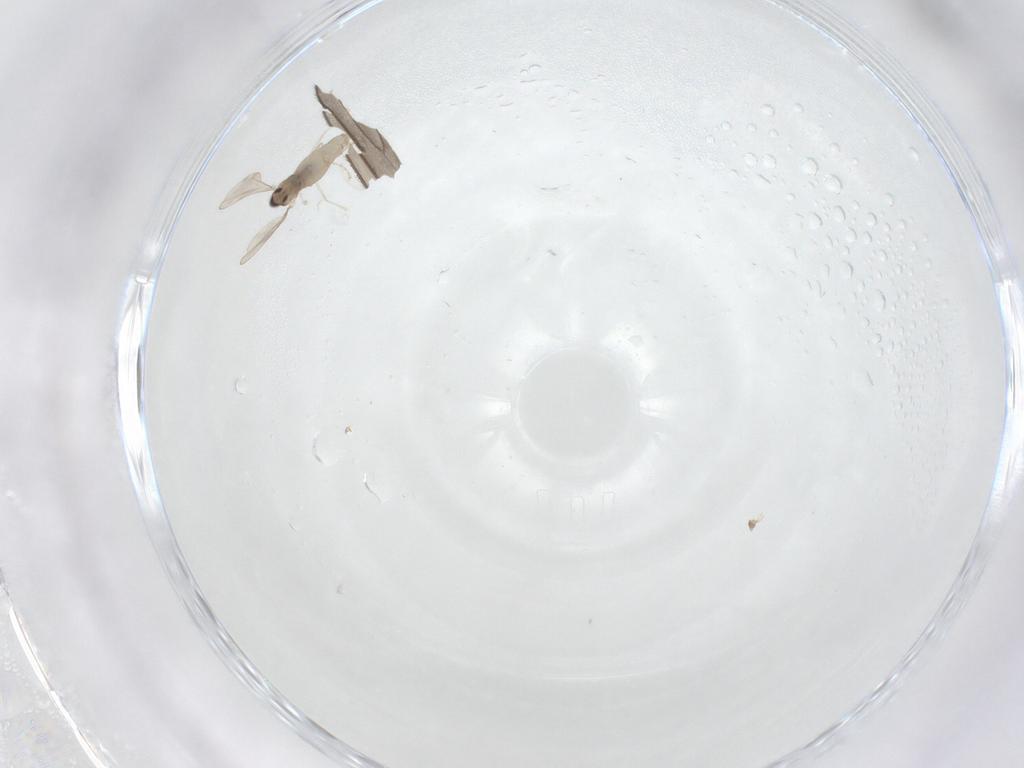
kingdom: Animalia
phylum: Arthropoda
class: Insecta
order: Diptera
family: Cecidomyiidae
